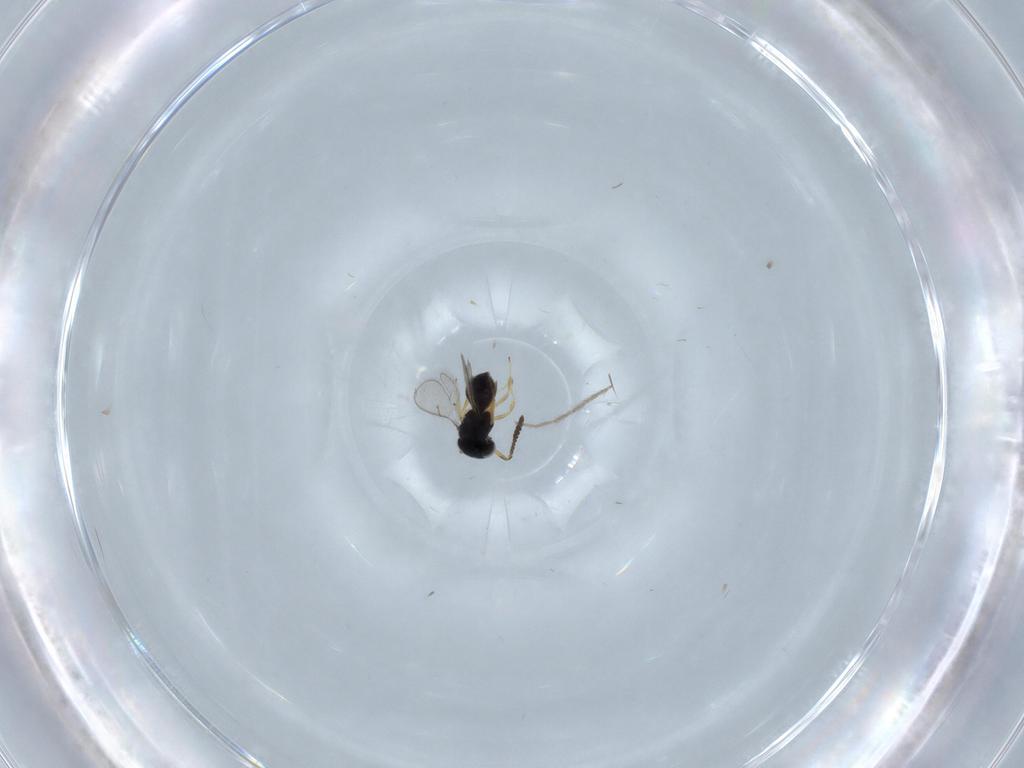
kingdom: Animalia
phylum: Arthropoda
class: Insecta
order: Hymenoptera
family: Scelionidae
